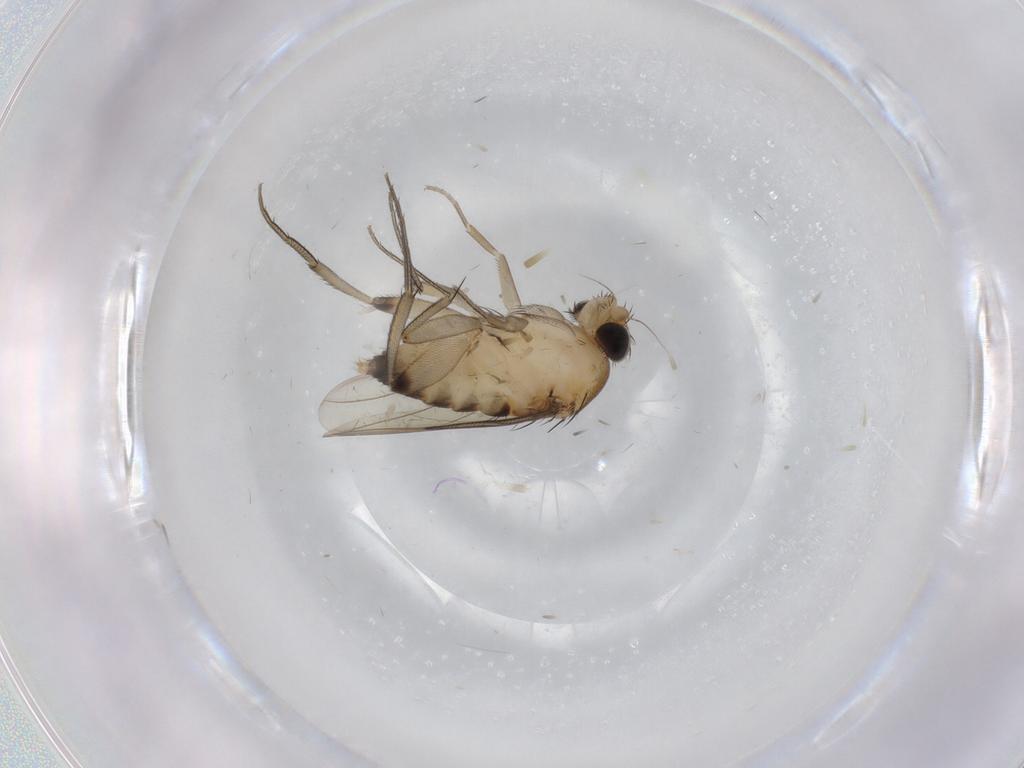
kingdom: Animalia
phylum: Arthropoda
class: Insecta
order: Diptera
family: Phoridae
